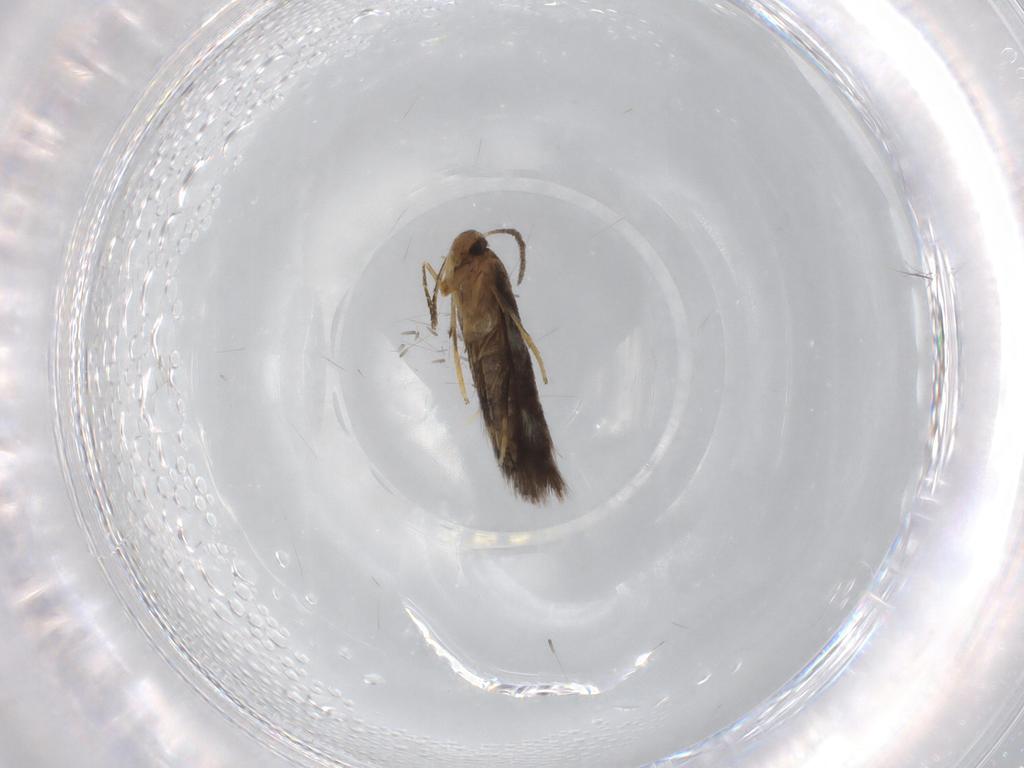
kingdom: Animalia
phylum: Arthropoda
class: Insecta
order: Lepidoptera
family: Heliozelidae
